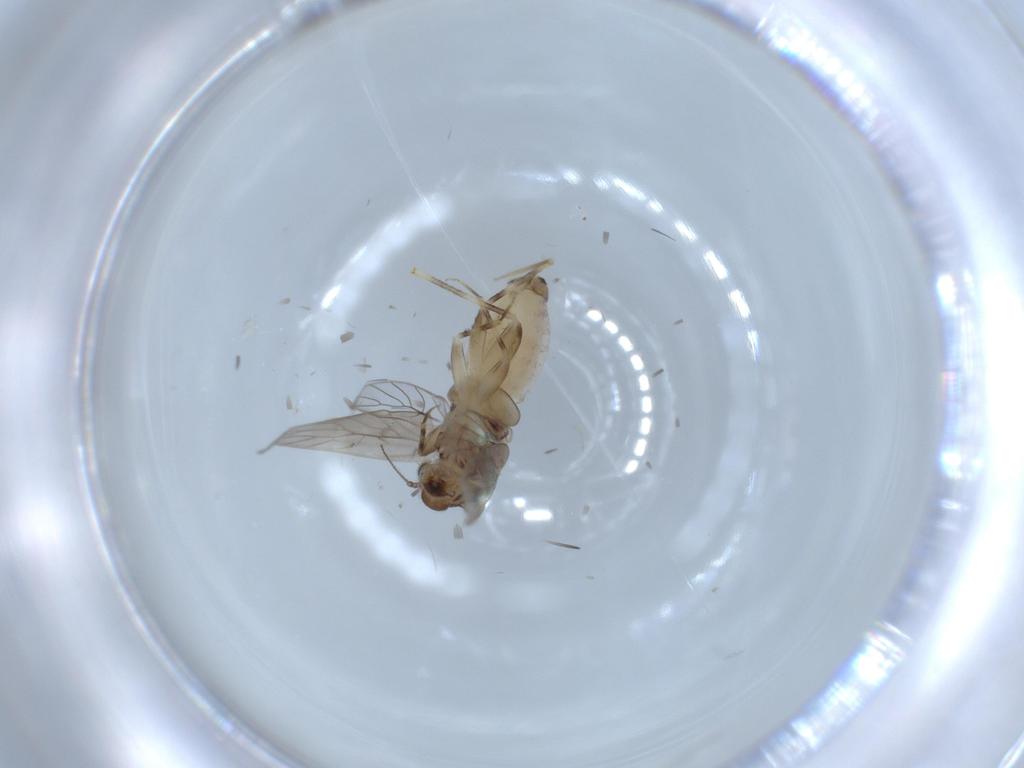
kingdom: Animalia
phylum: Arthropoda
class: Insecta
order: Psocodea
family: Lepidopsocidae
